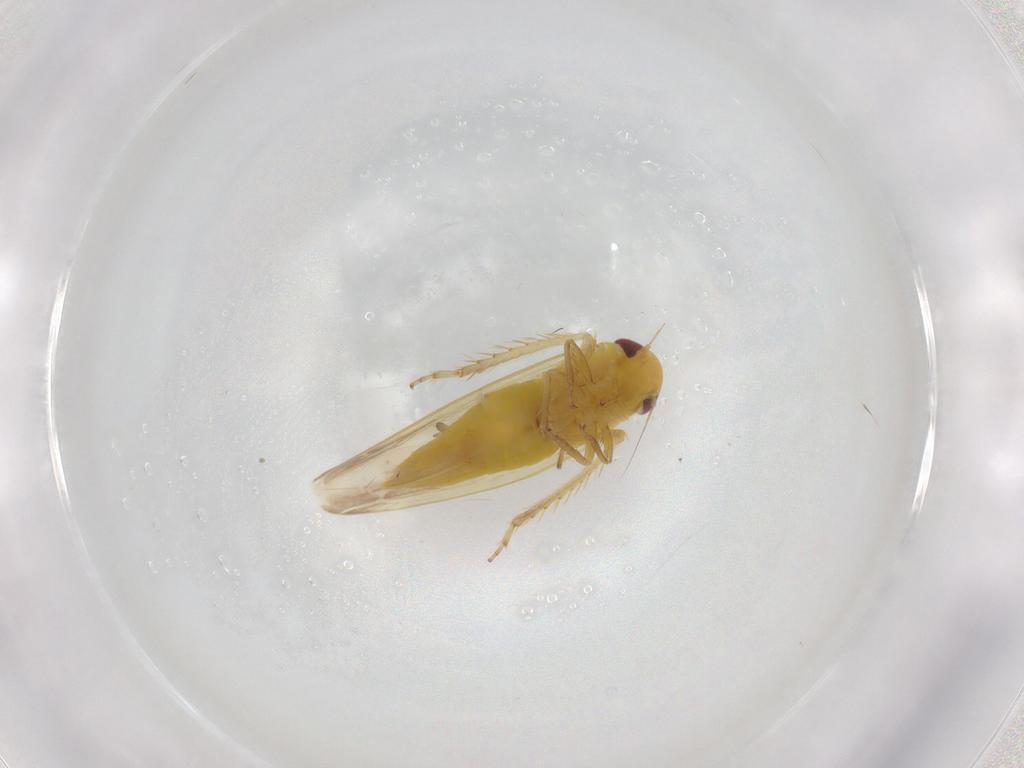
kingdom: Animalia
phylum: Arthropoda
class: Insecta
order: Hemiptera
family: Cicadellidae
